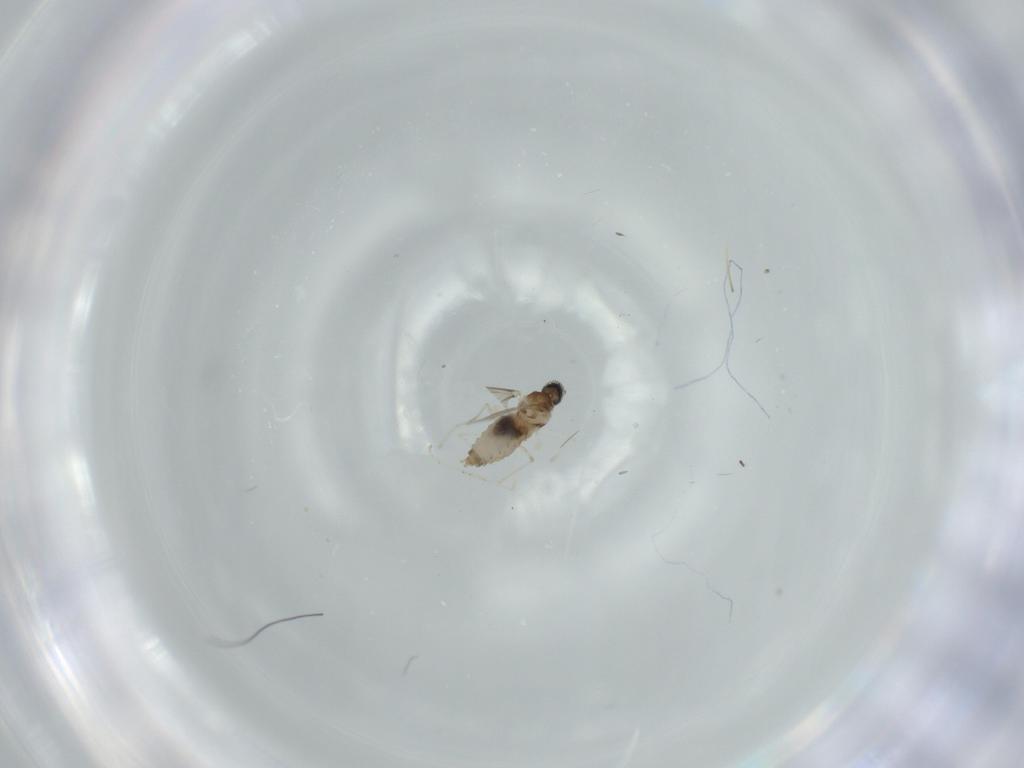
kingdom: Animalia
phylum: Arthropoda
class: Insecta
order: Diptera
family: Cecidomyiidae
